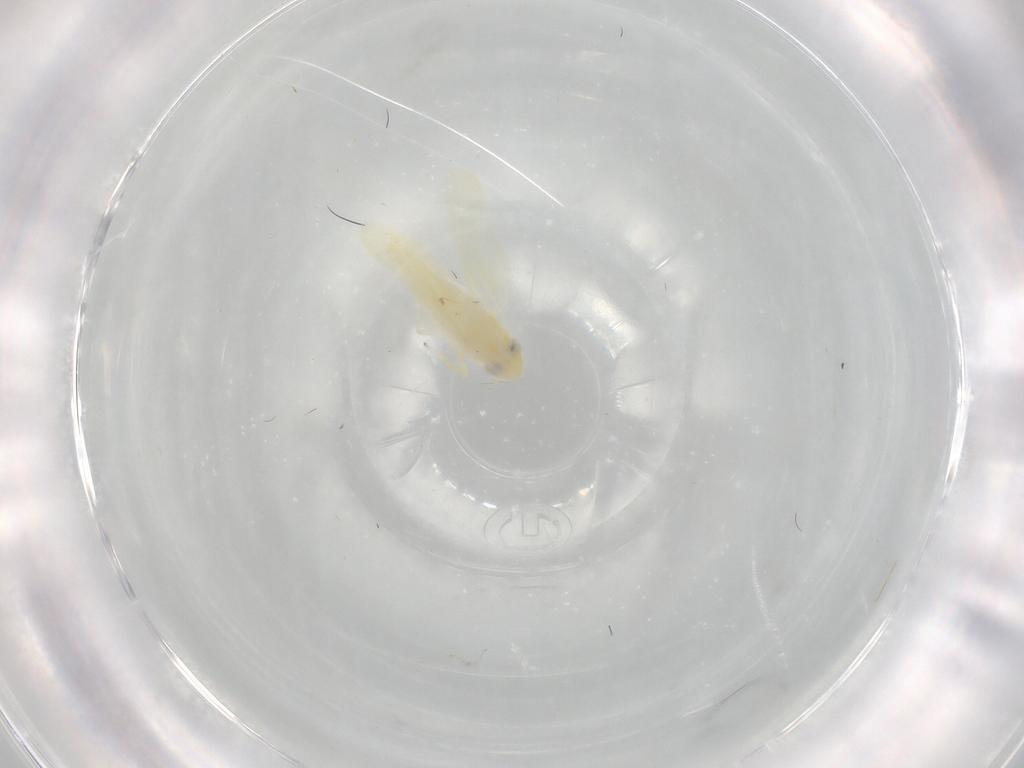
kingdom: Animalia
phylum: Arthropoda
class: Insecta
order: Hemiptera
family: Cicadellidae
